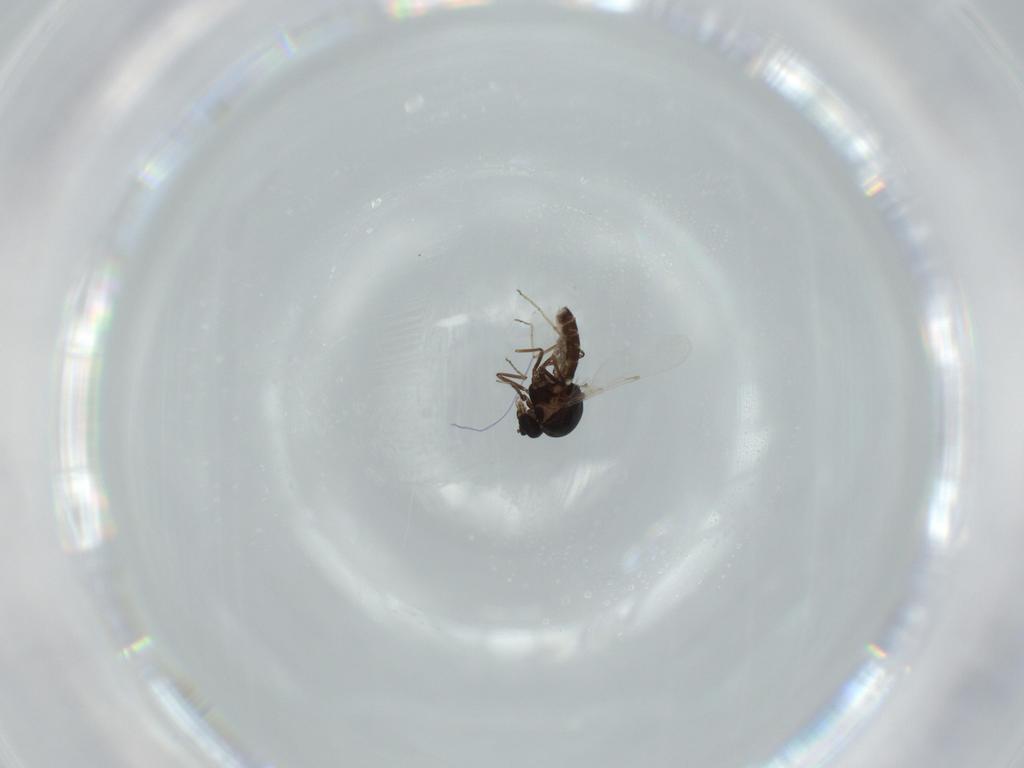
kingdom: Animalia
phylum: Arthropoda
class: Insecta
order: Diptera
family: Ceratopogonidae
